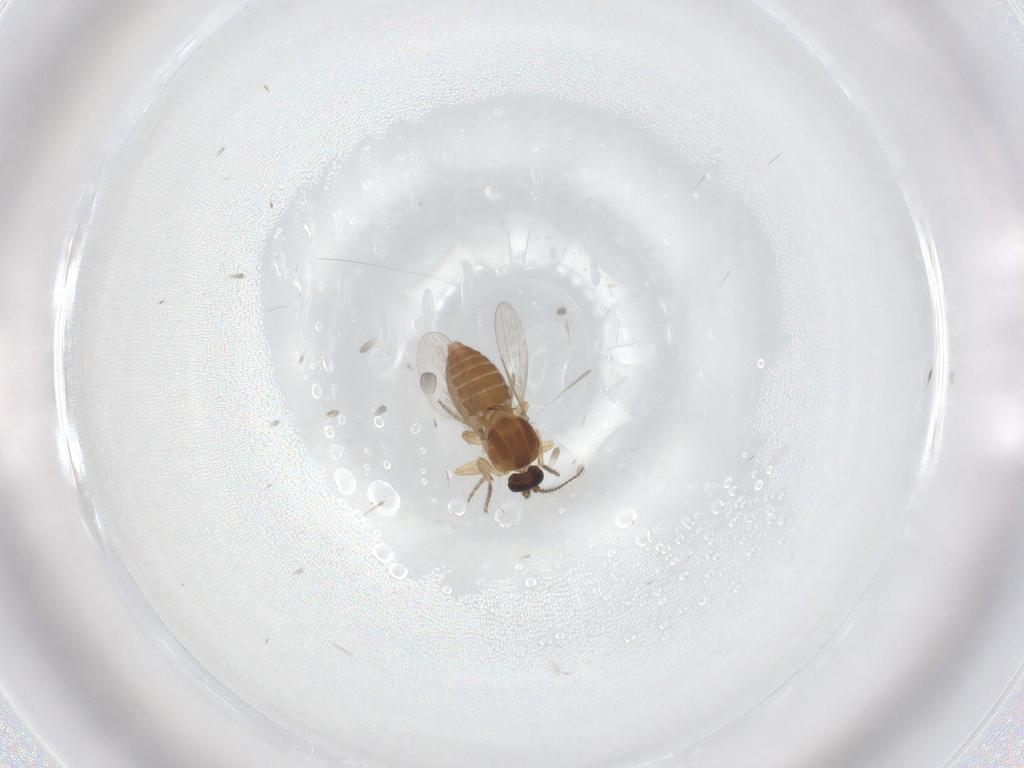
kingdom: Animalia
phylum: Arthropoda
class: Insecta
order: Diptera
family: Ceratopogonidae
